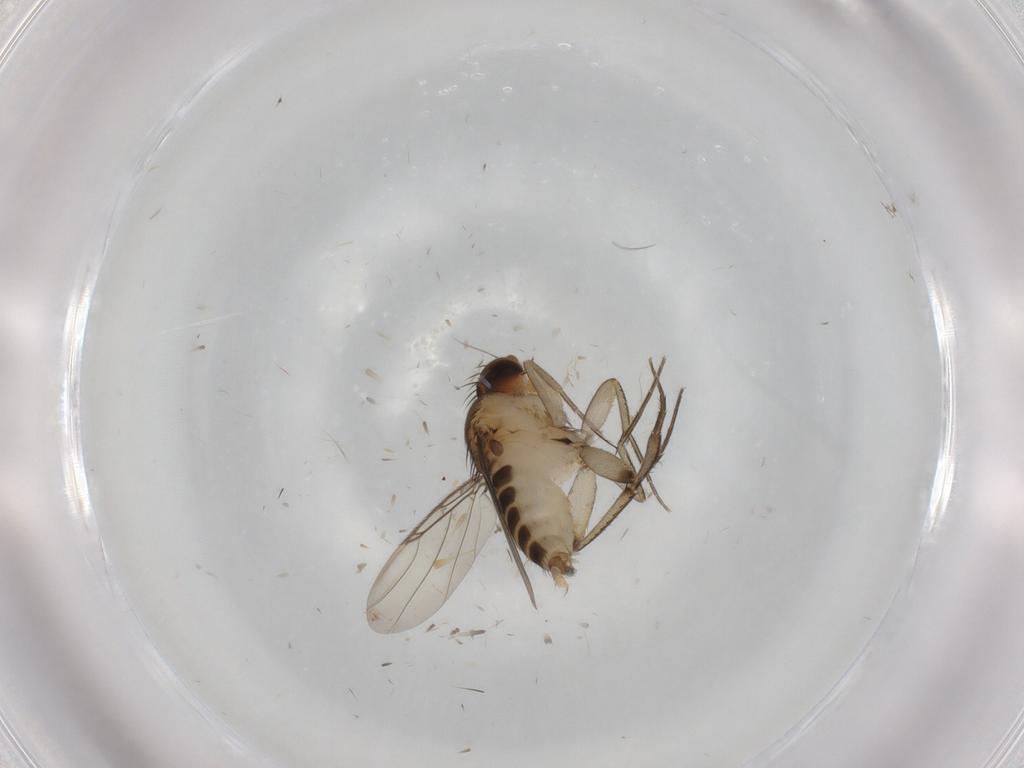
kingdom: Animalia
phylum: Arthropoda
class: Insecta
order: Diptera
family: Phoridae
